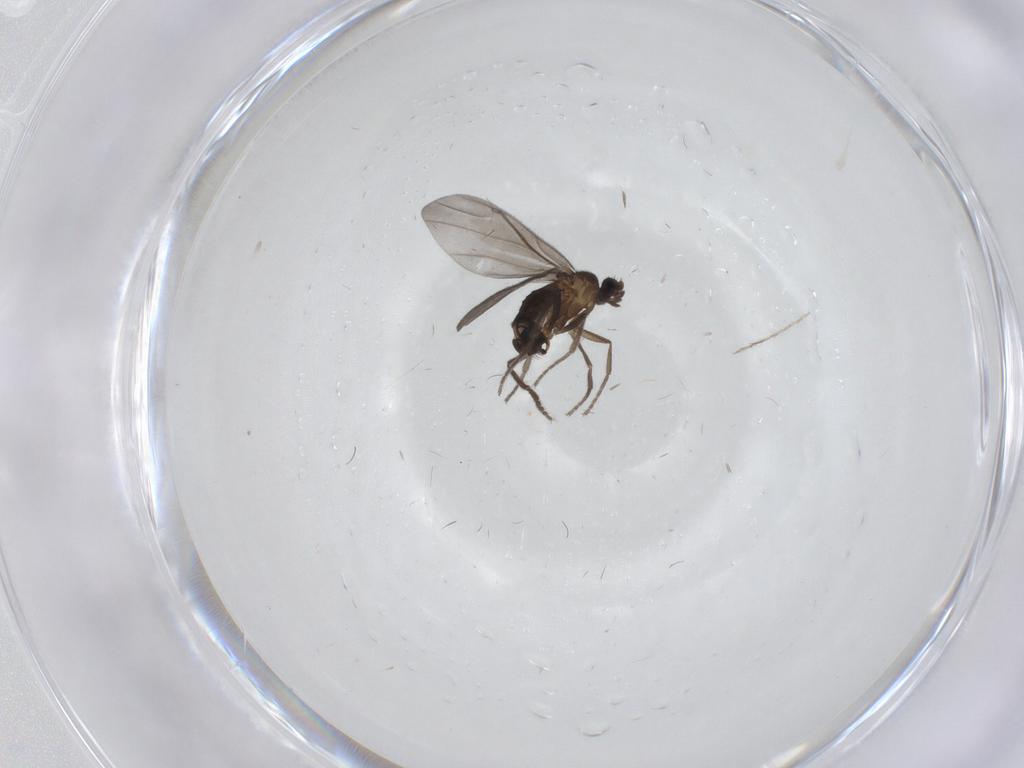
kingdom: Animalia
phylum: Arthropoda
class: Insecta
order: Diptera
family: Phoridae
